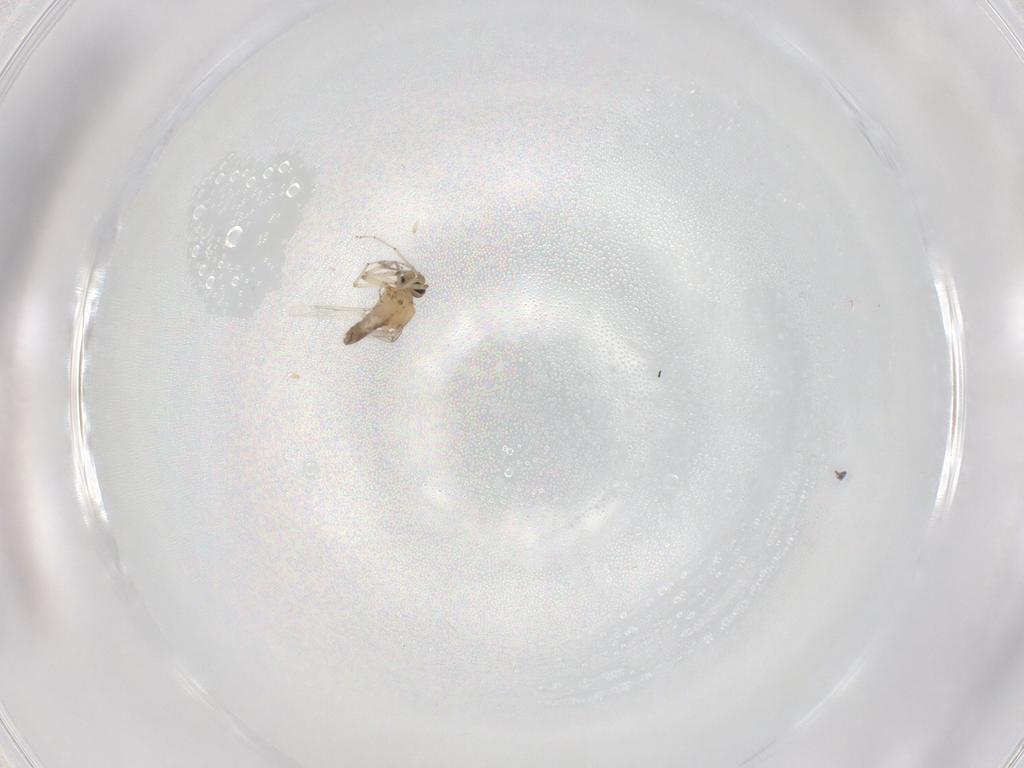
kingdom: Animalia
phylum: Arthropoda
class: Insecta
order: Diptera
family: Ceratopogonidae
